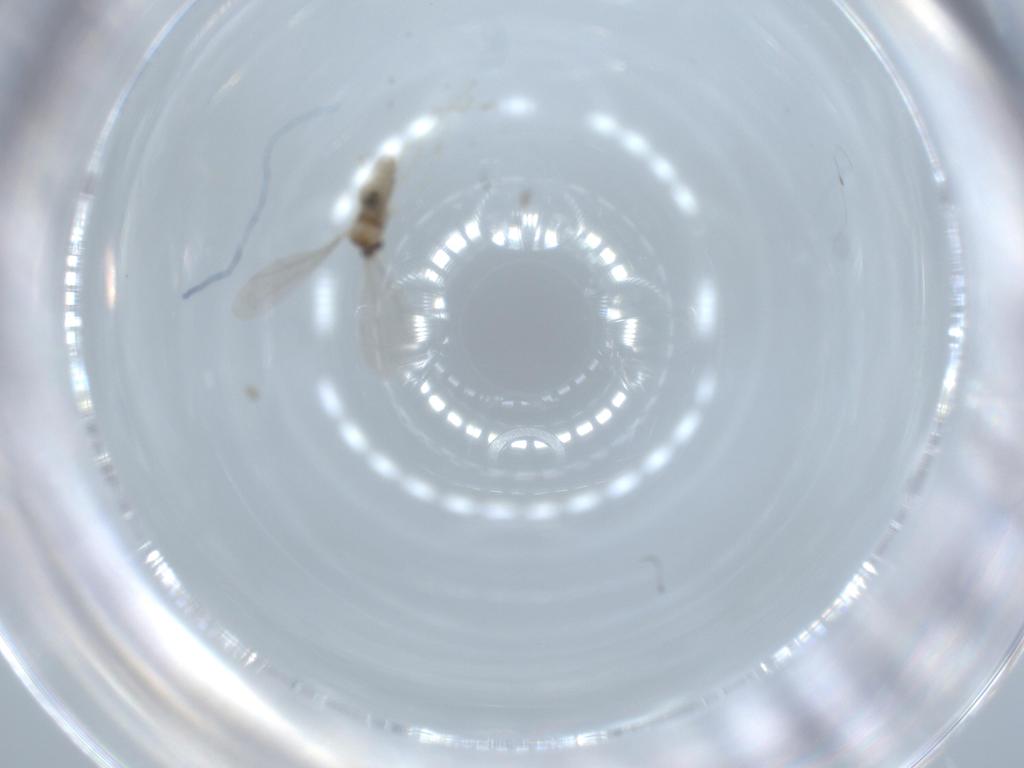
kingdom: Animalia
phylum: Arthropoda
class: Insecta
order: Diptera
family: Cecidomyiidae
